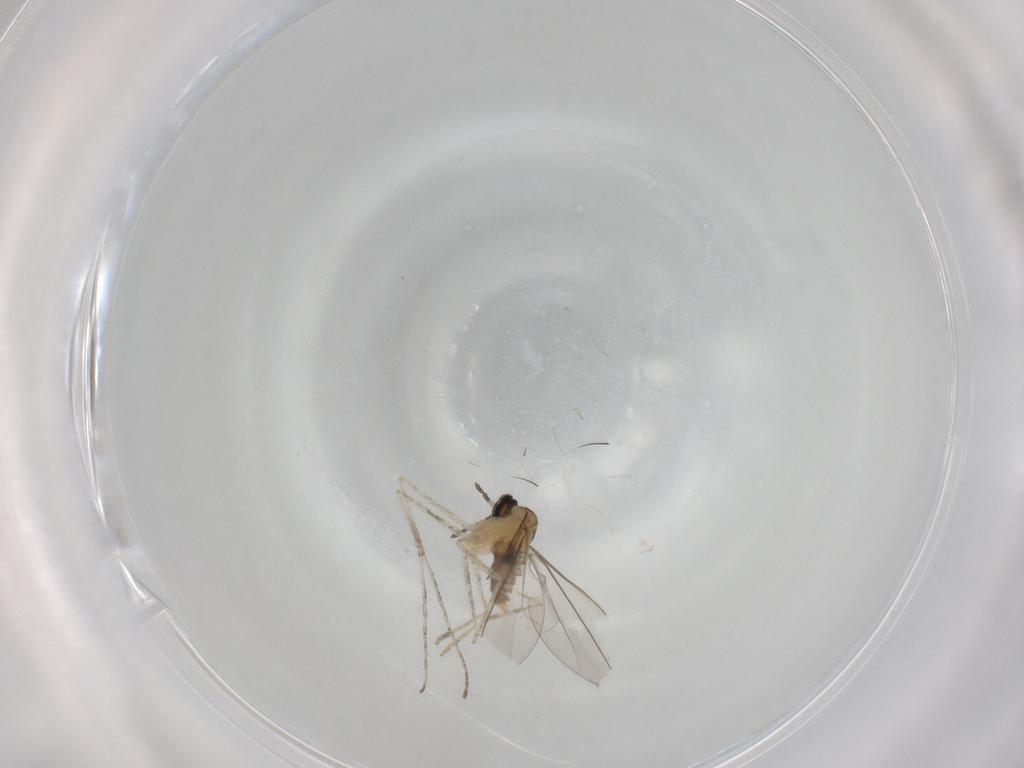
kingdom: Animalia
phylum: Arthropoda
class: Insecta
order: Diptera
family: Cecidomyiidae
